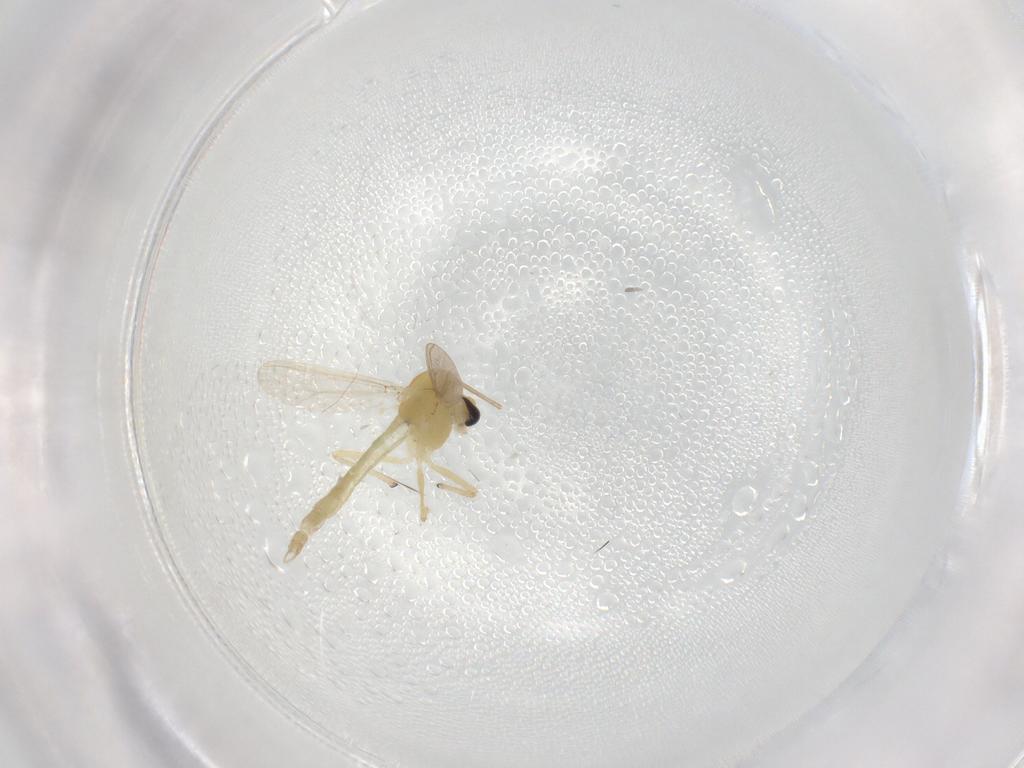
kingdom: Animalia
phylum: Arthropoda
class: Insecta
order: Diptera
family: Chironomidae
